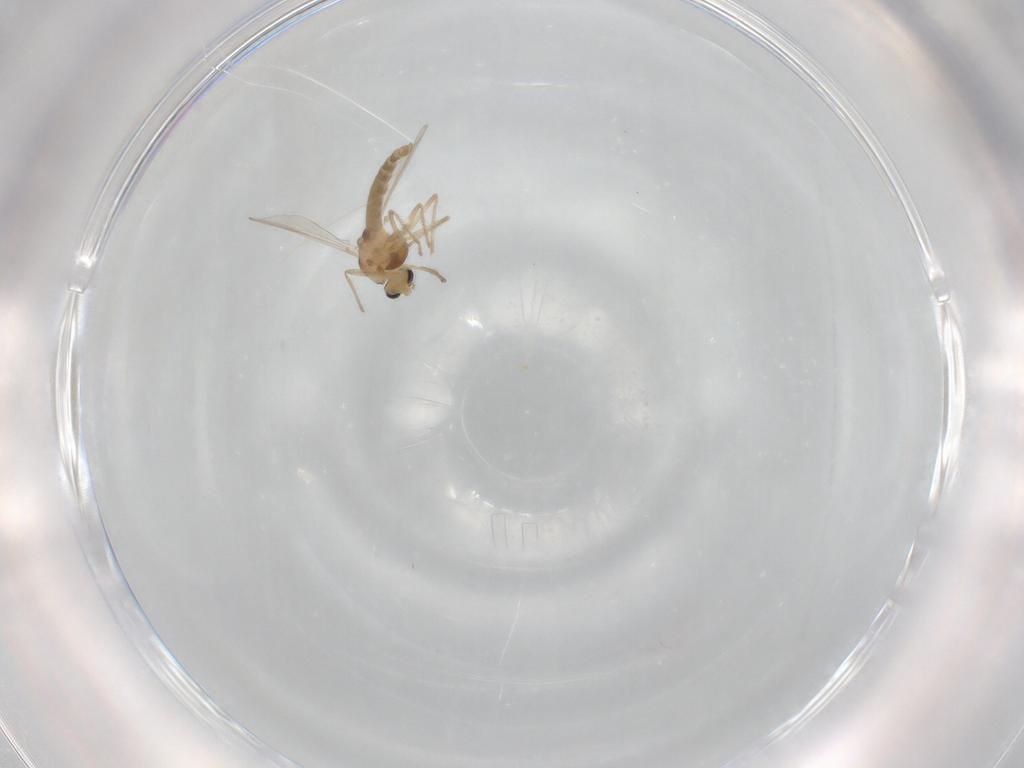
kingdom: Animalia
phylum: Arthropoda
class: Insecta
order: Diptera
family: Chironomidae
